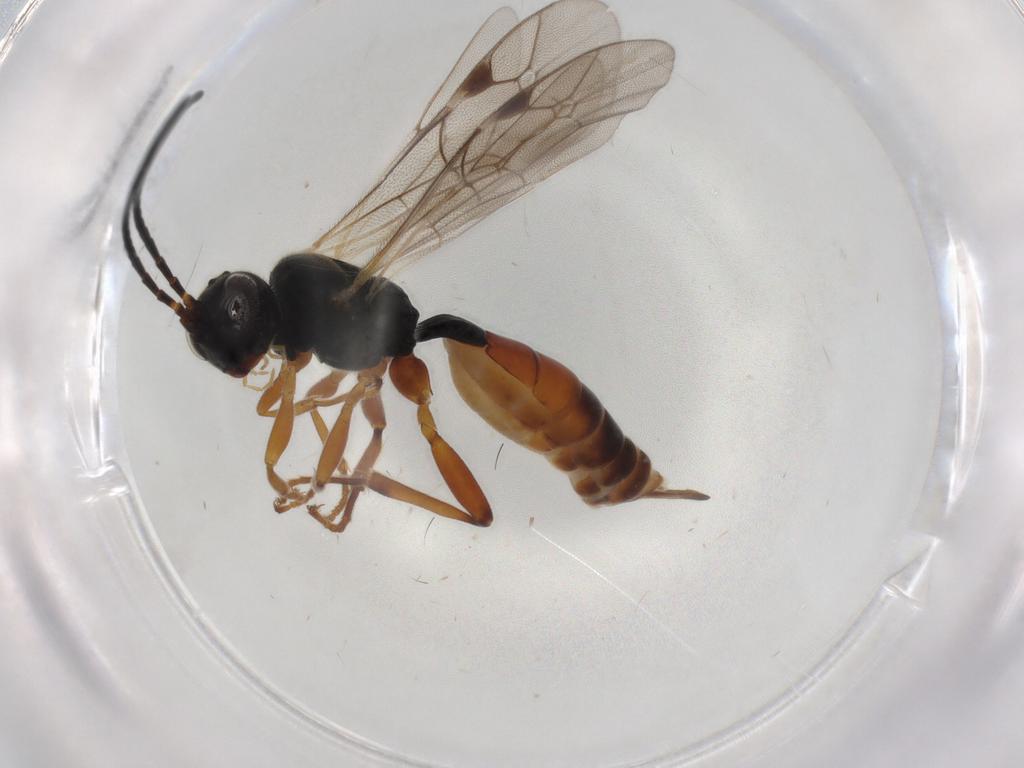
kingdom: Animalia
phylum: Arthropoda
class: Insecta
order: Hymenoptera
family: Ichneumonidae
